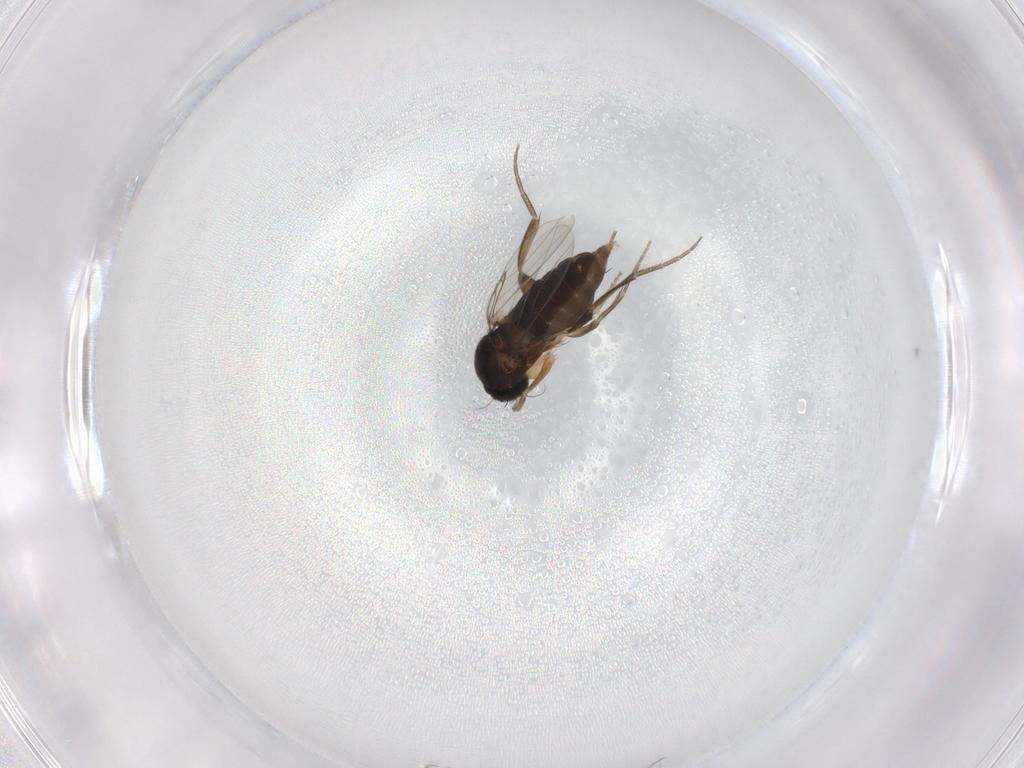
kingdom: Animalia
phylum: Arthropoda
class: Insecta
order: Diptera
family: Phoridae
